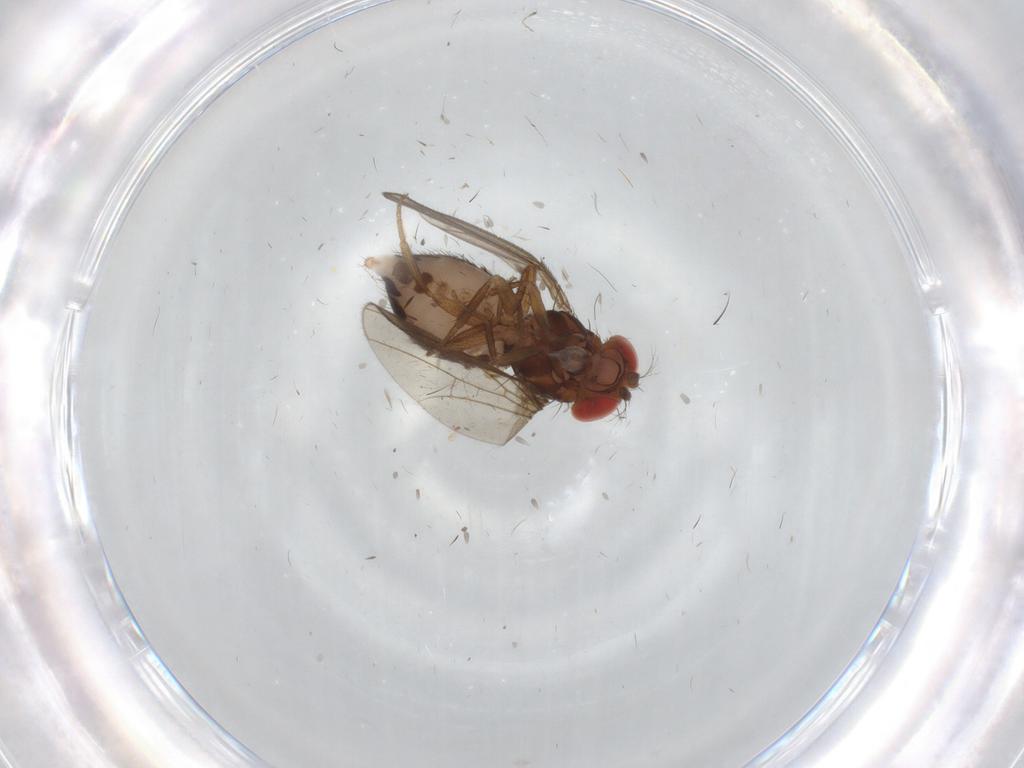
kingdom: Animalia
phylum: Arthropoda
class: Insecta
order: Diptera
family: Drosophilidae
